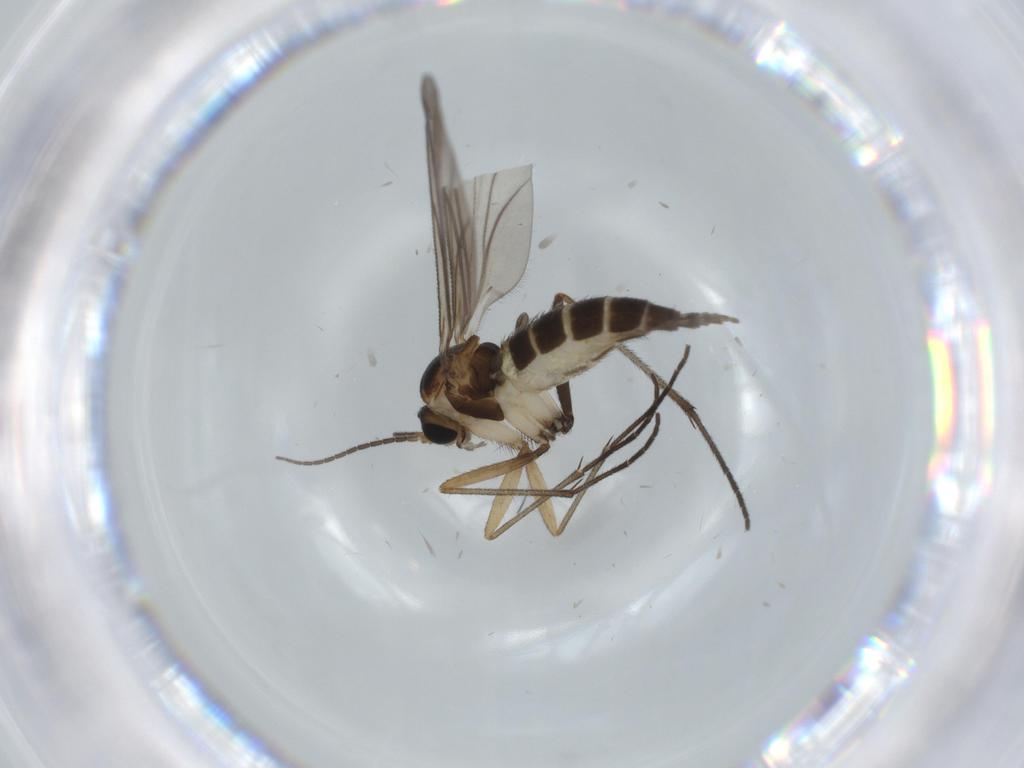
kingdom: Animalia
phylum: Arthropoda
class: Insecta
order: Diptera
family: Sciaridae
